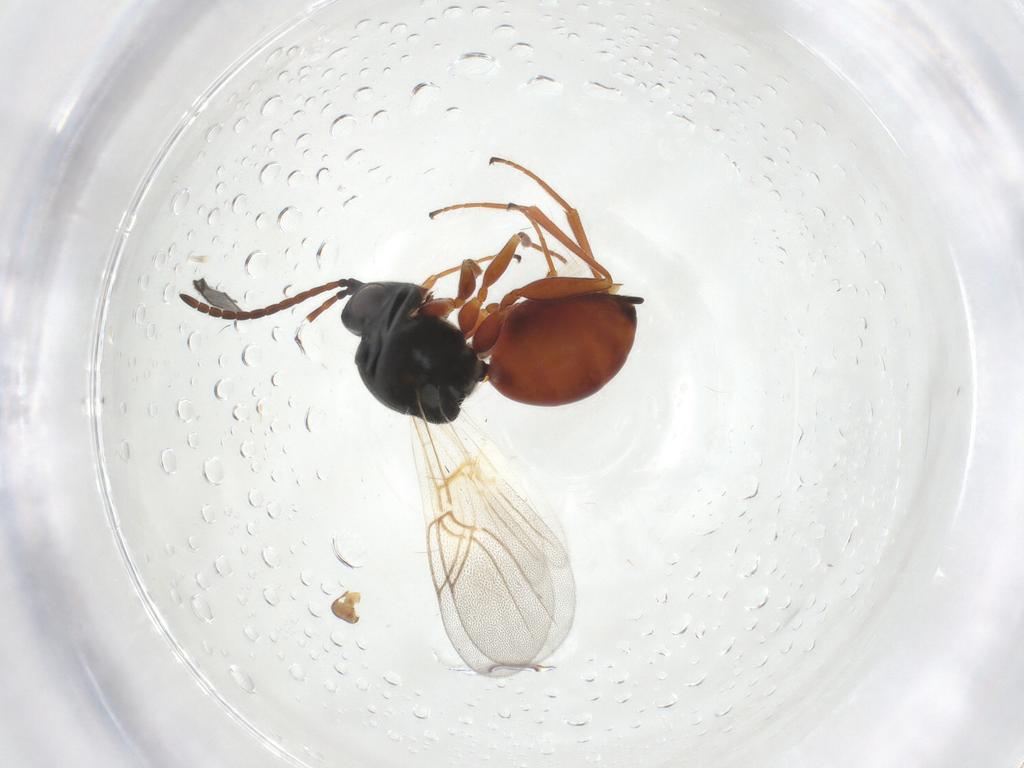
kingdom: Animalia
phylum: Arthropoda
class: Insecta
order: Hymenoptera
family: Cynipidae
